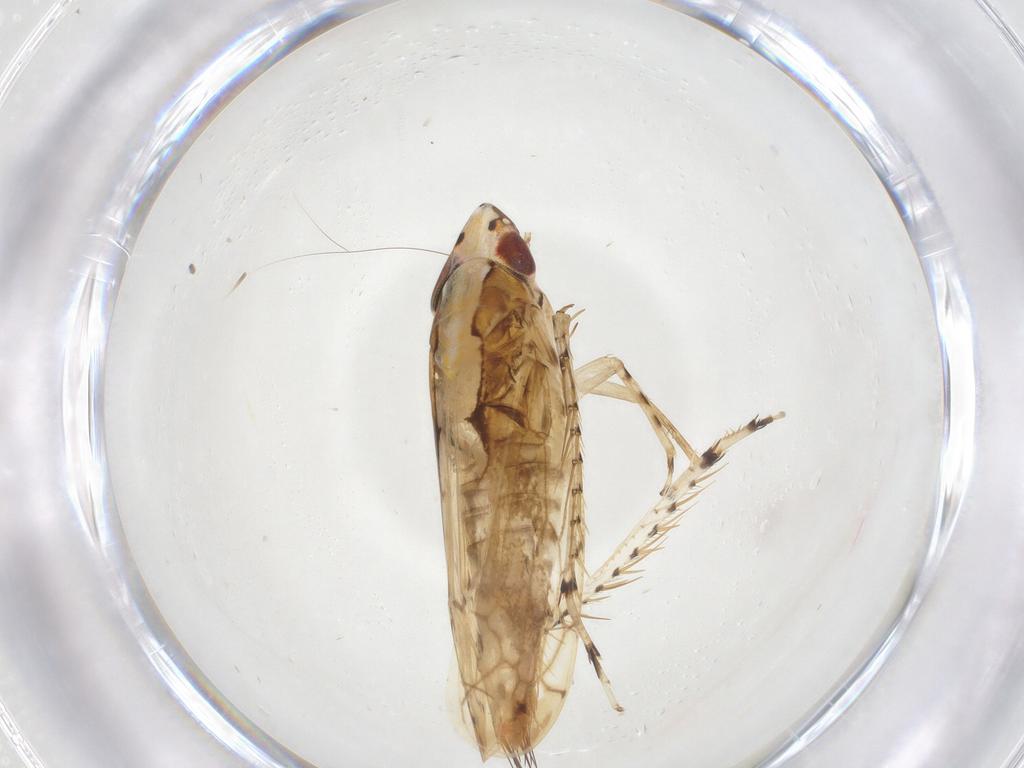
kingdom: Animalia
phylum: Arthropoda
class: Insecta
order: Hemiptera
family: Cicadellidae
